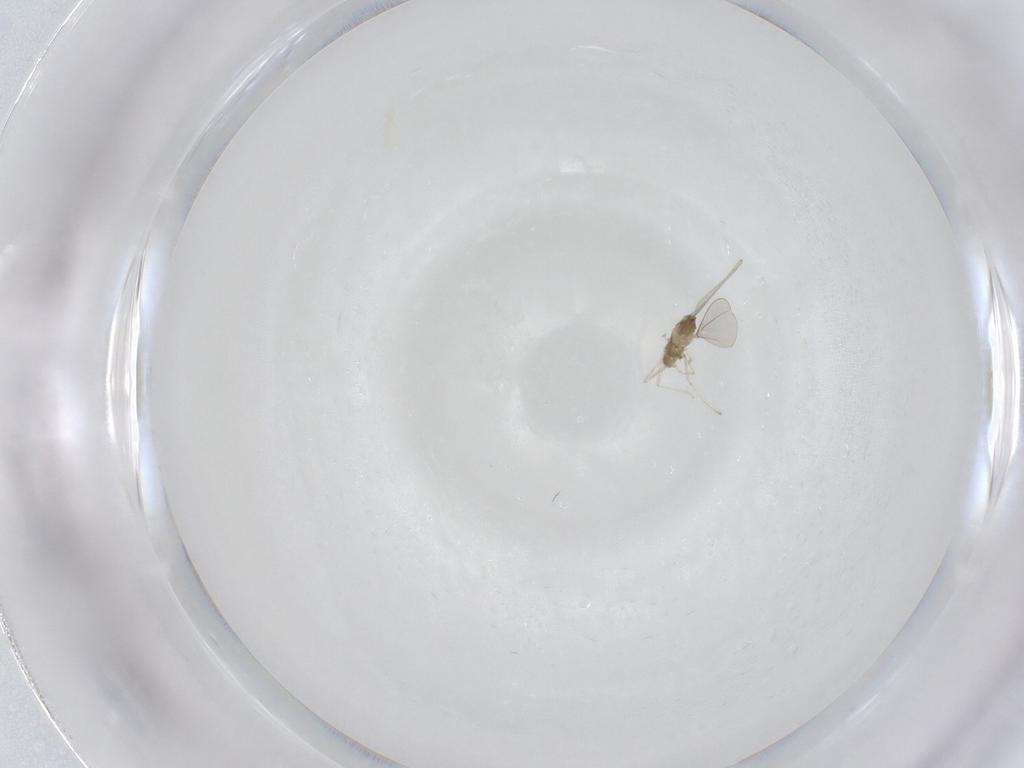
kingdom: Animalia
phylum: Arthropoda
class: Insecta
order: Diptera
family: Cecidomyiidae
